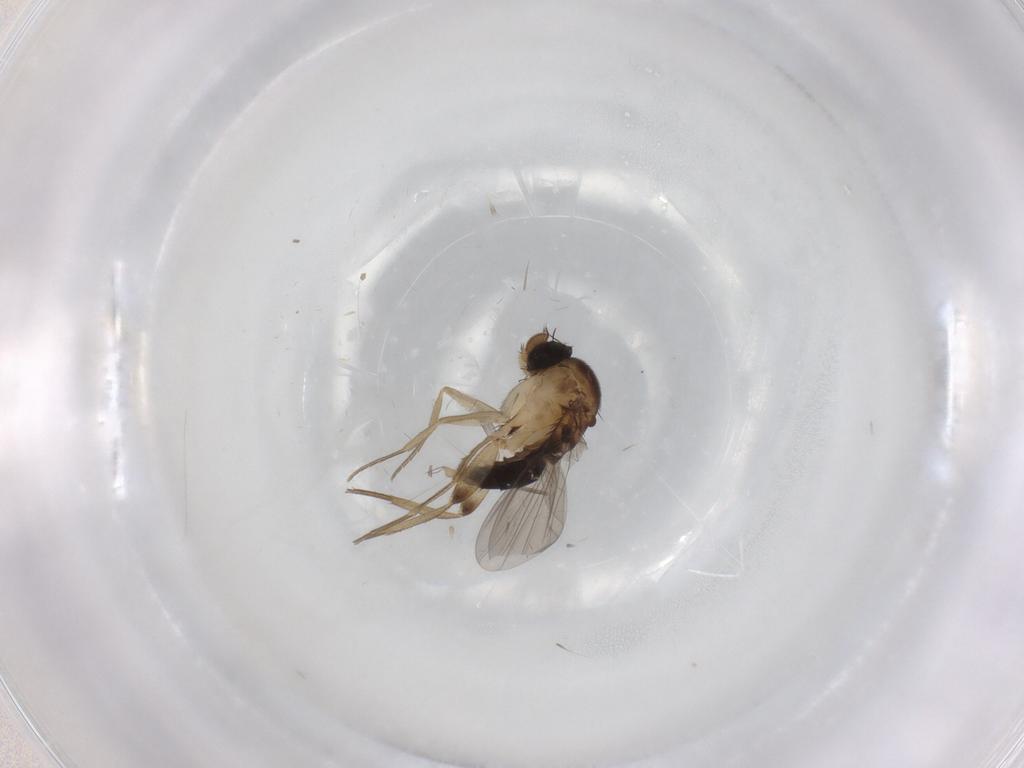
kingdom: Animalia
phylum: Arthropoda
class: Insecta
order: Diptera
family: Phoridae
